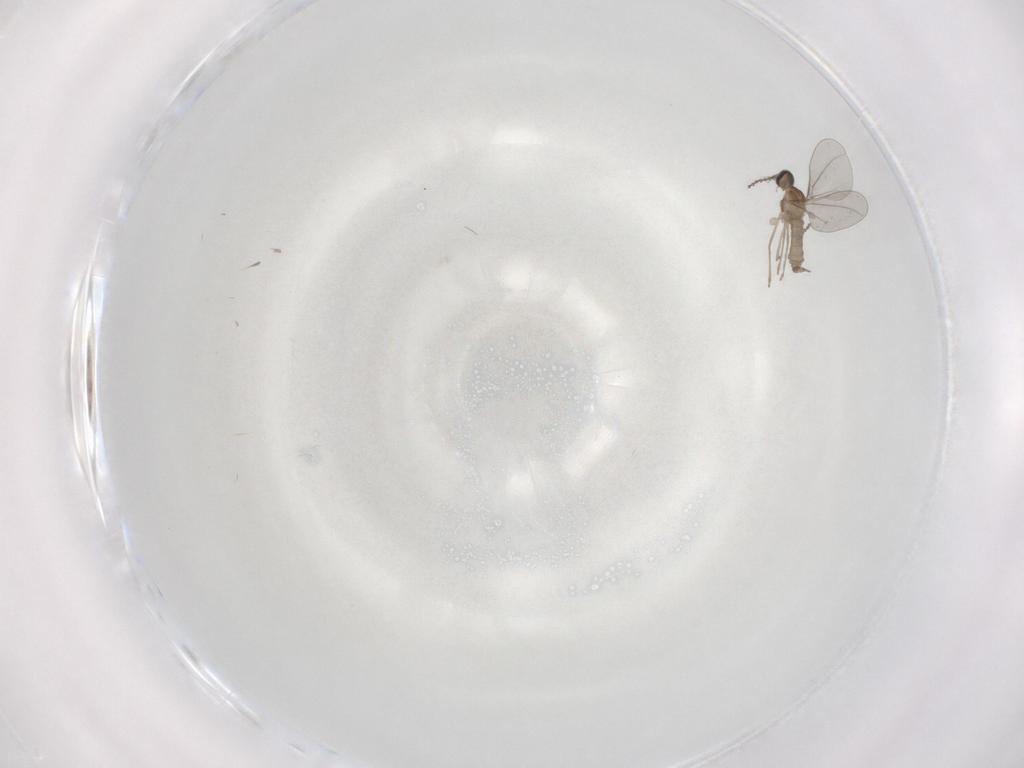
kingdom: Animalia
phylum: Arthropoda
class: Insecta
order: Diptera
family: Cecidomyiidae
